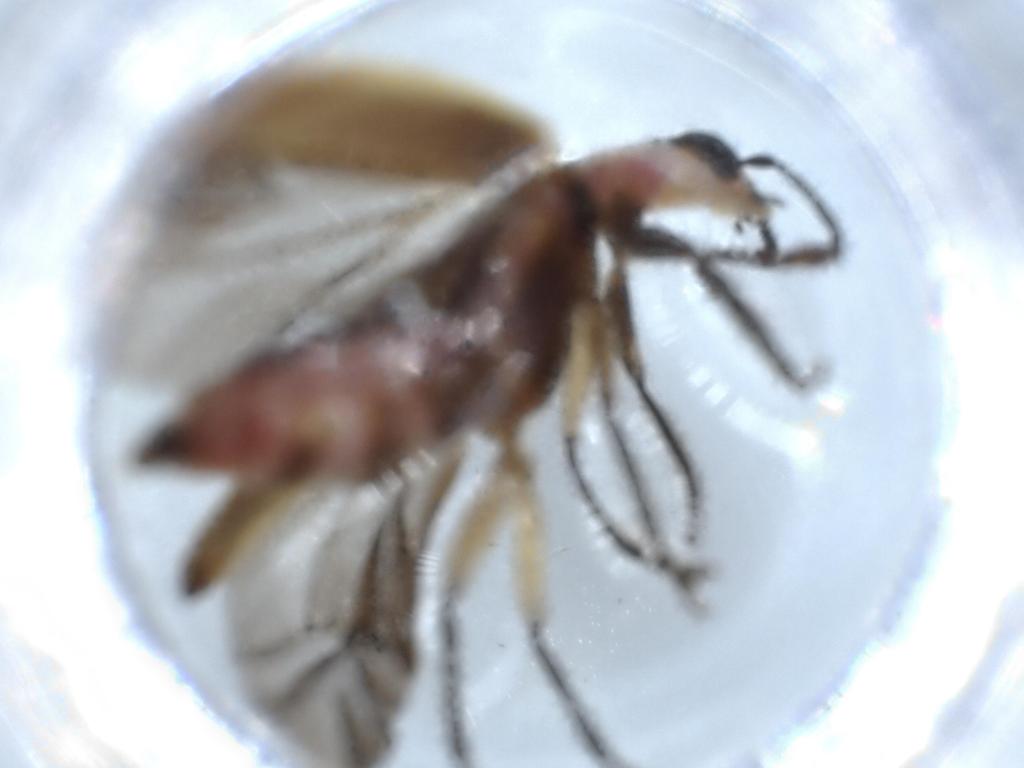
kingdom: Animalia
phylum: Arthropoda
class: Insecta
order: Coleoptera
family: Cleridae
